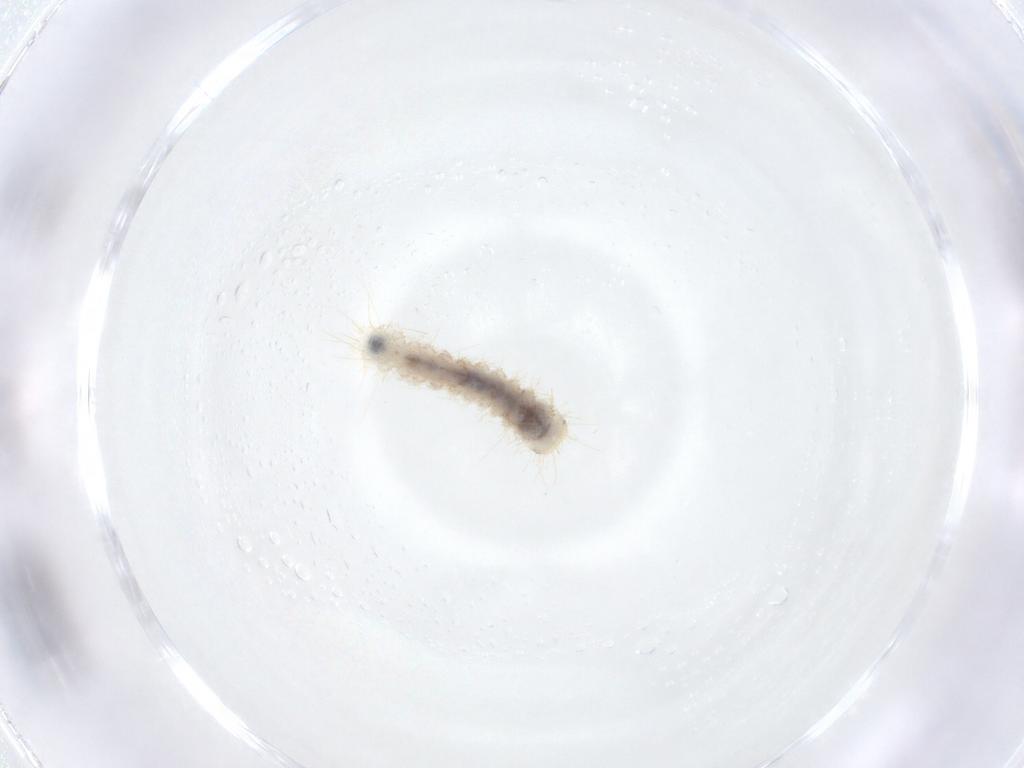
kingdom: Animalia
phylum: Arthropoda
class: Insecta
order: Lepidoptera
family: Erebidae
